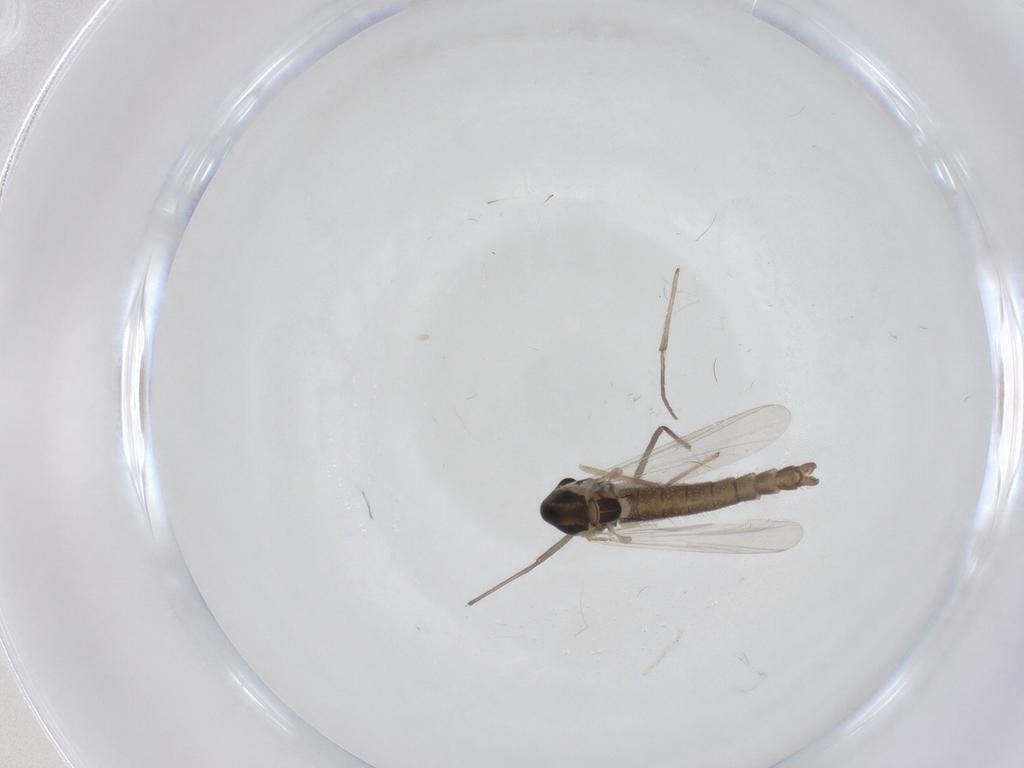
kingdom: Animalia
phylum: Arthropoda
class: Insecta
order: Diptera
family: Chironomidae
